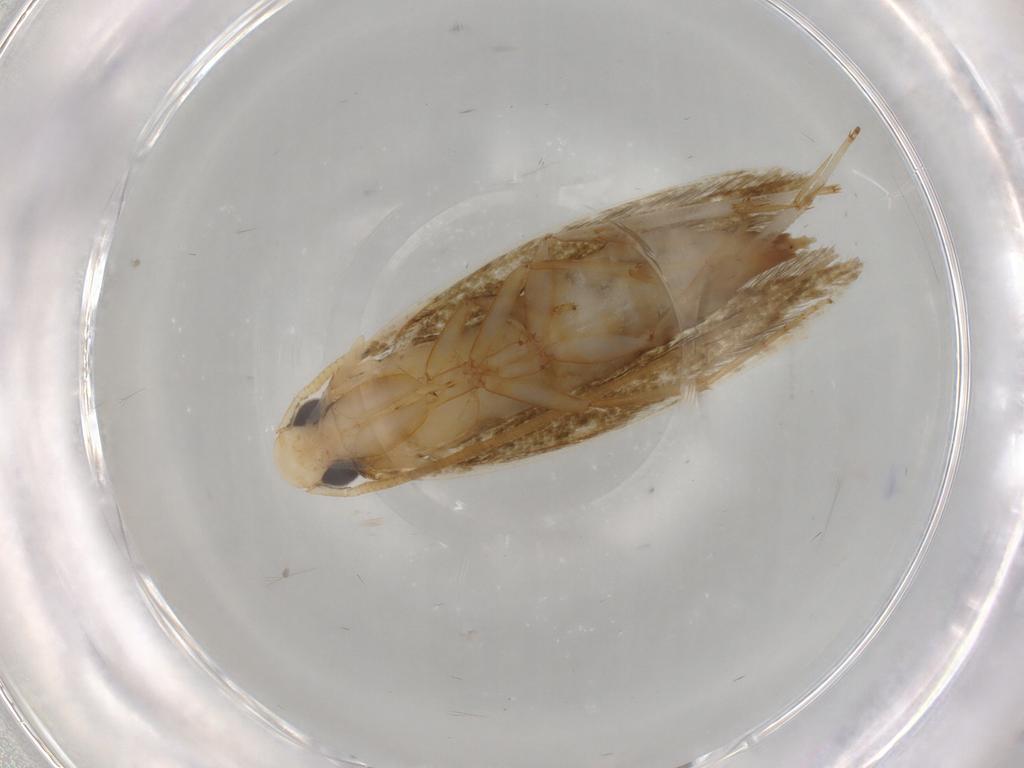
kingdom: Animalia
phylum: Arthropoda
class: Insecta
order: Lepidoptera
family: Tineidae
